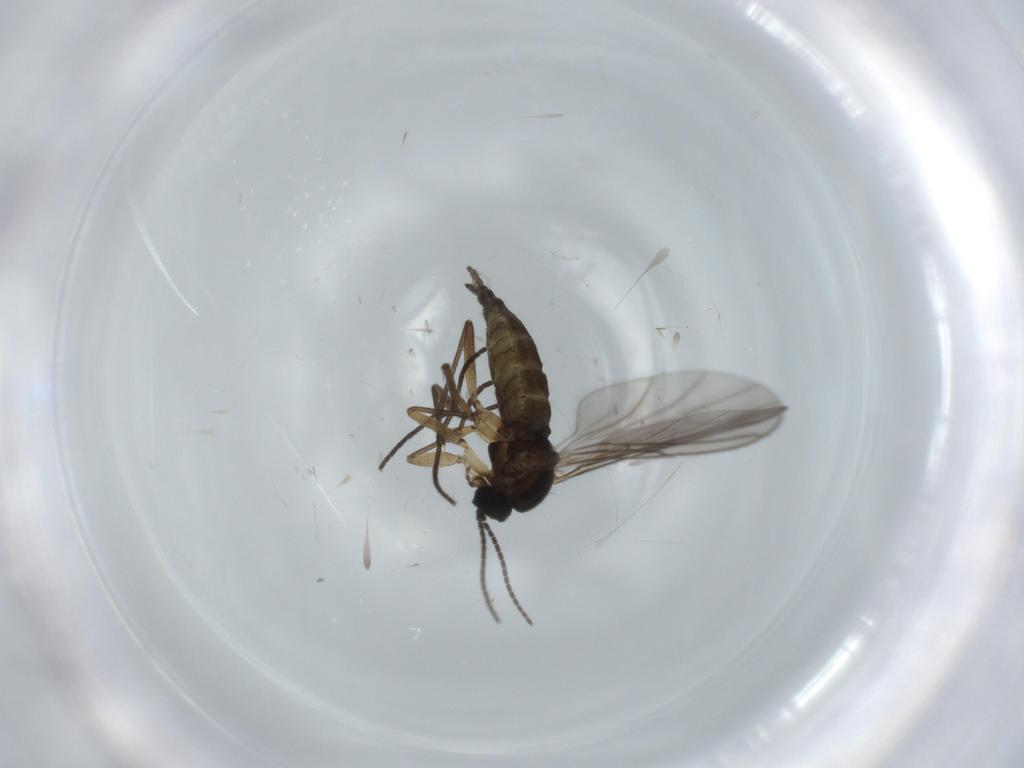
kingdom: Animalia
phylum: Arthropoda
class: Insecta
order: Diptera
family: Sciaridae
